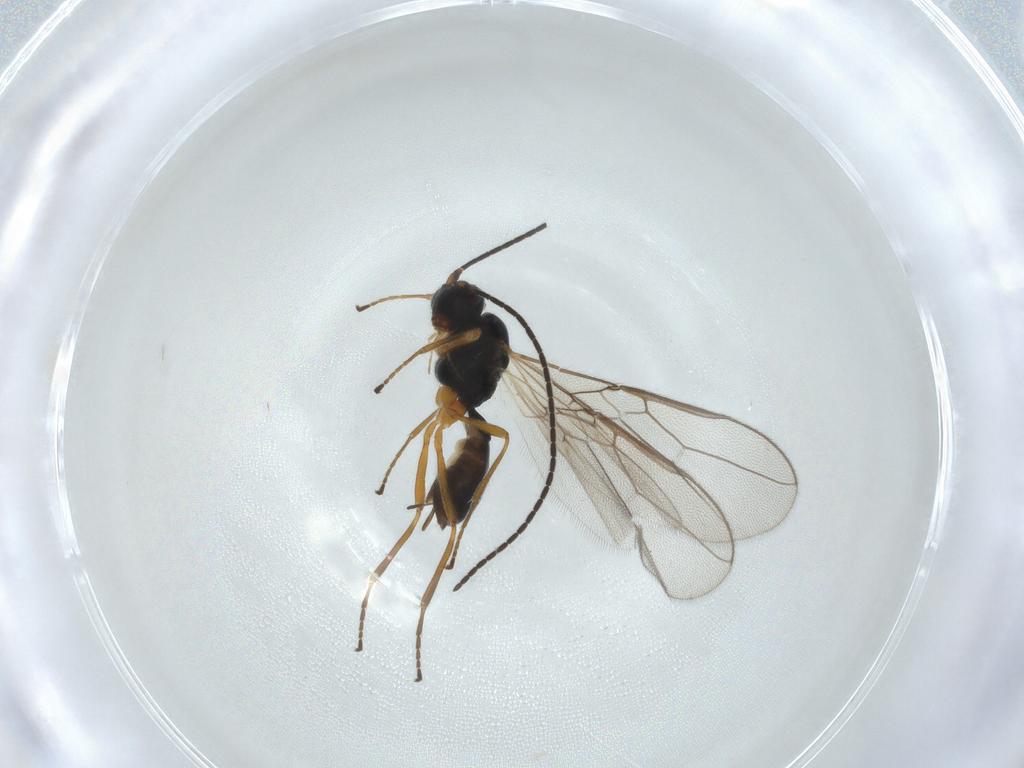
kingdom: Animalia
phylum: Arthropoda
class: Insecta
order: Hymenoptera
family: Braconidae
